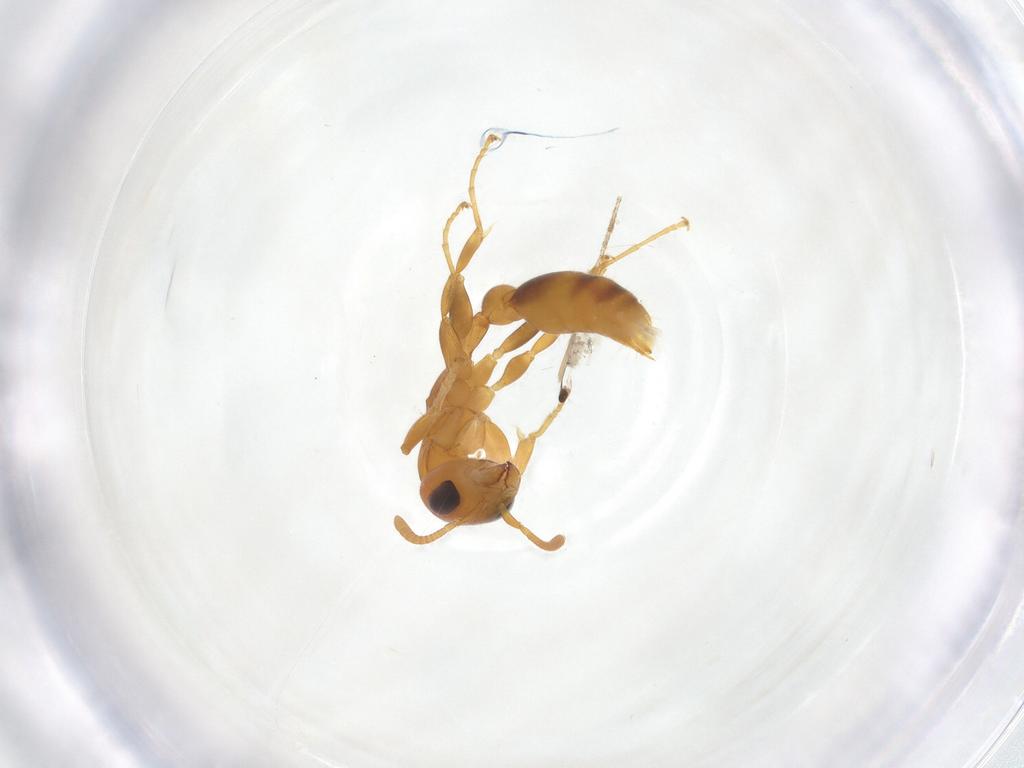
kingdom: Animalia
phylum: Arthropoda
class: Insecta
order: Hymenoptera
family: Formicidae
